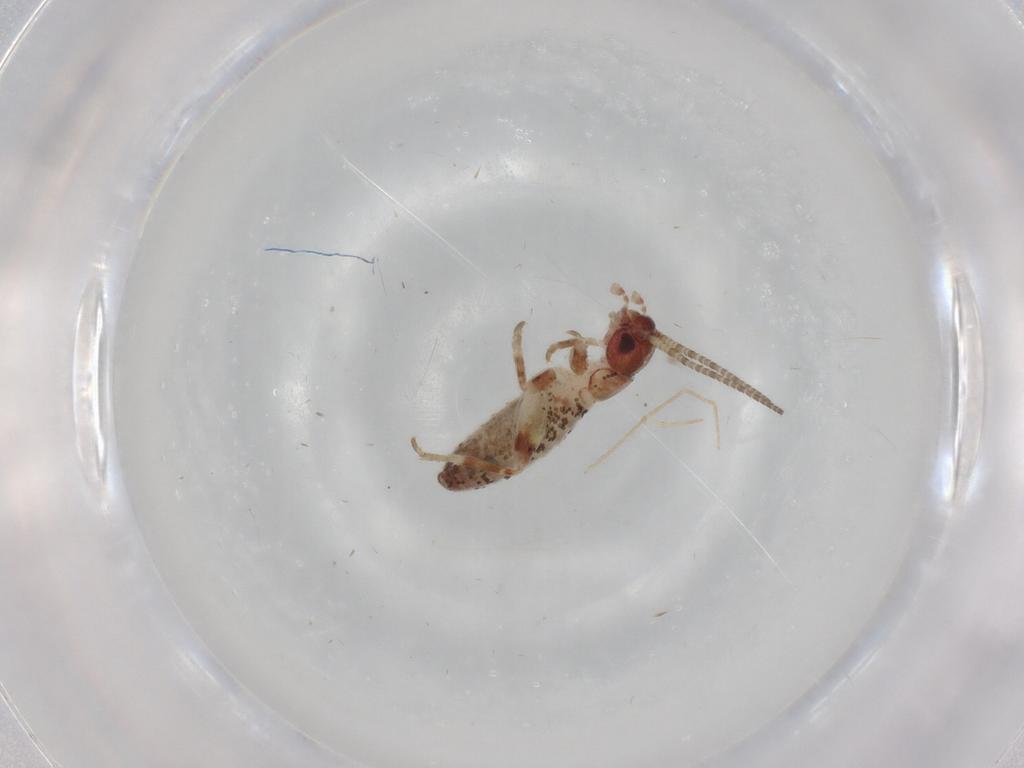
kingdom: Animalia
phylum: Arthropoda
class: Insecta
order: Orthoptera
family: Mogoplistidae
